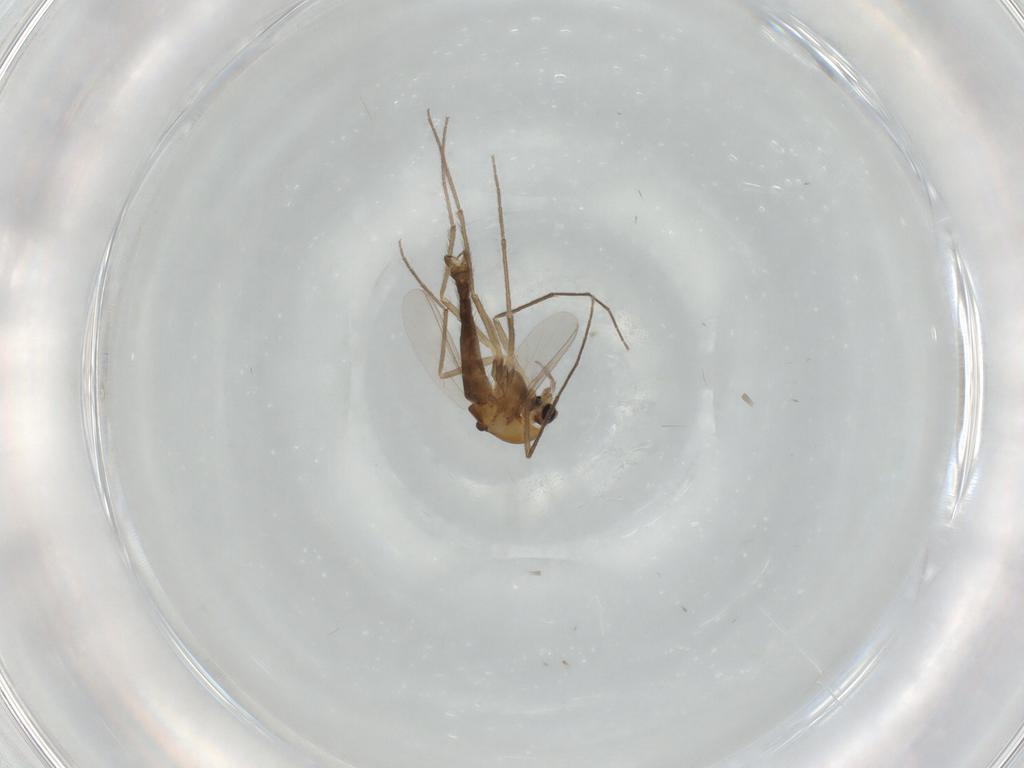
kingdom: Animalia
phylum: Arthropoda
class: Insecta
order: Diptera
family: Chironomidae
